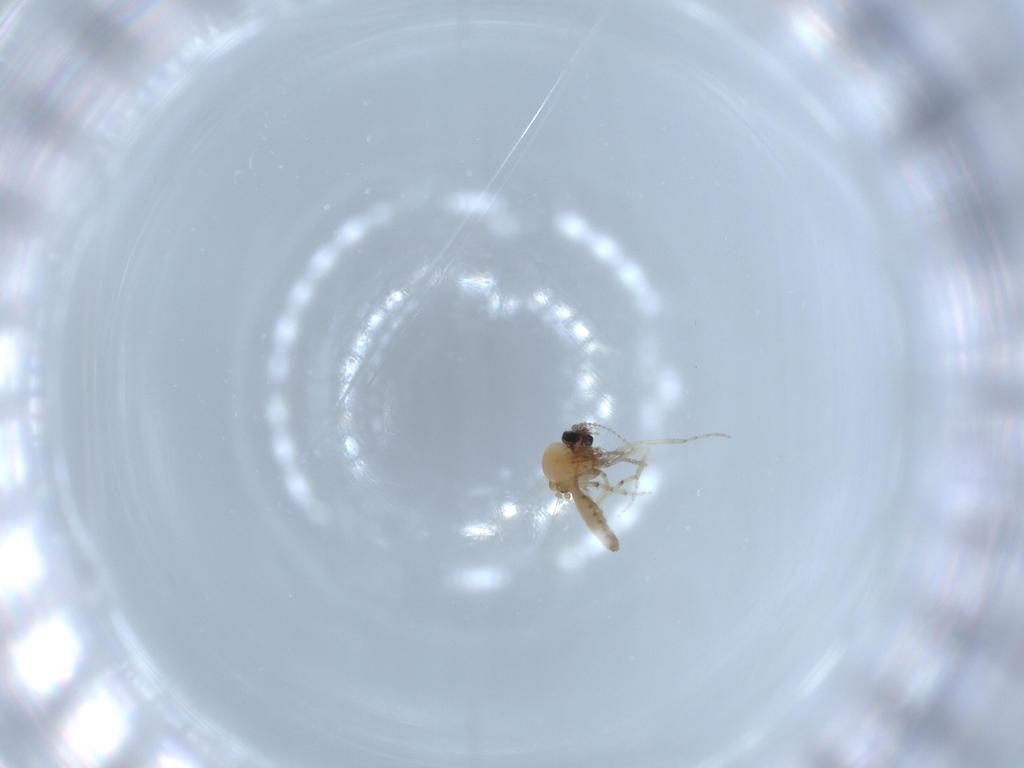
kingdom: Animalia
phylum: Arthropoda
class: Insecta
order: Diptera
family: Ceratopogonidae
